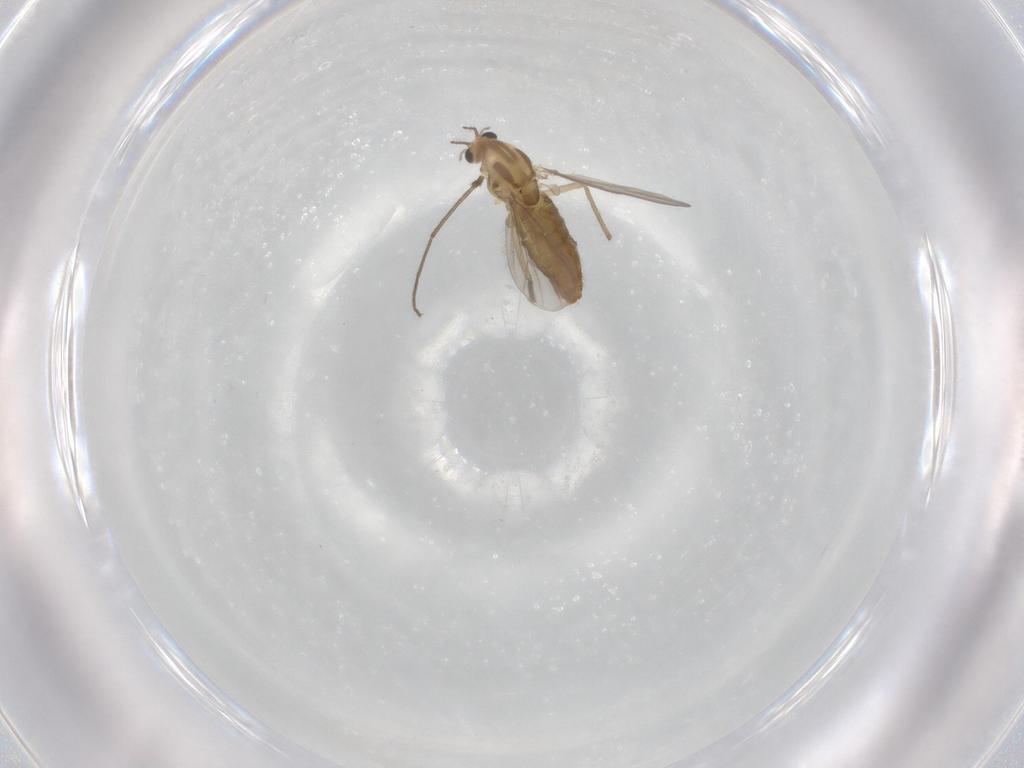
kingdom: Animalia
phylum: Arthropoda
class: Insecta
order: Diptera
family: Chironomidae
